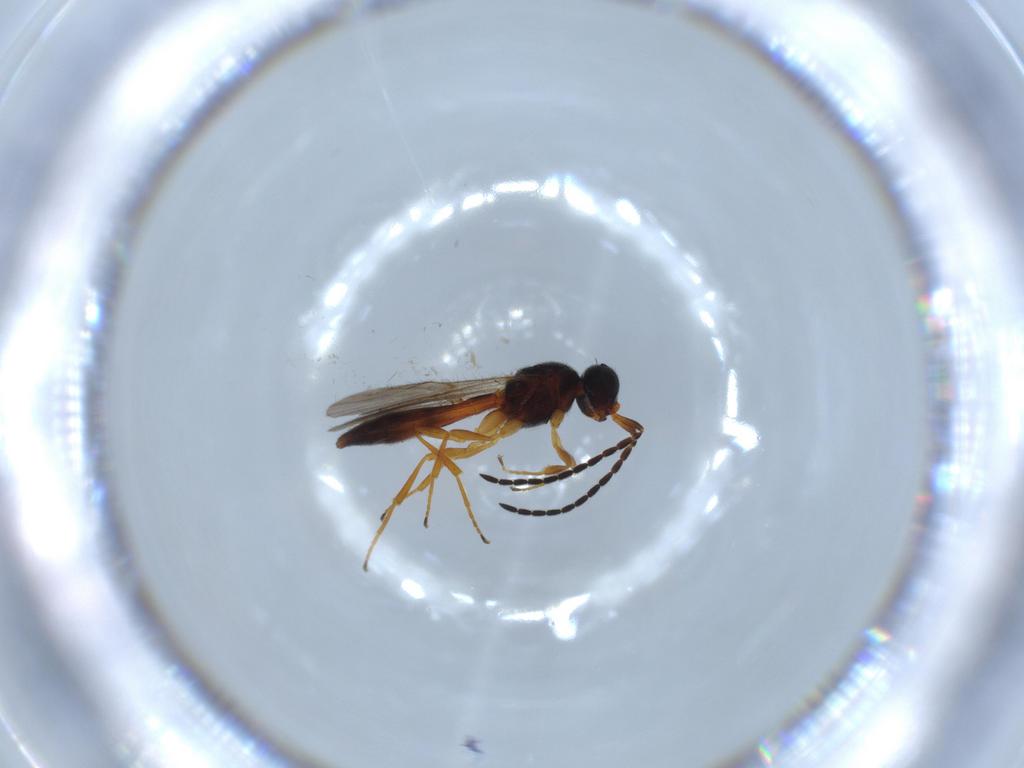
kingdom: Animalia
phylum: Arthropoda
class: Insecta
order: Hymenoptera
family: Scelionidae
